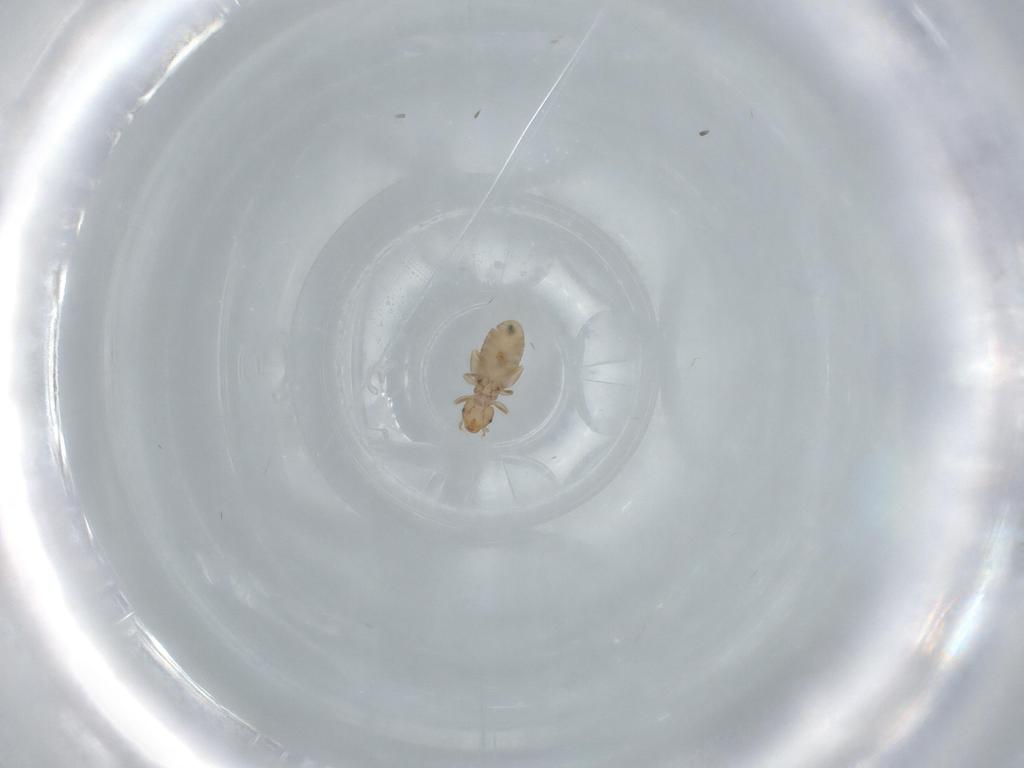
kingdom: Animalia
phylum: Arthropoda
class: Insecta
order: Psocodea
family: Liposcelididae
